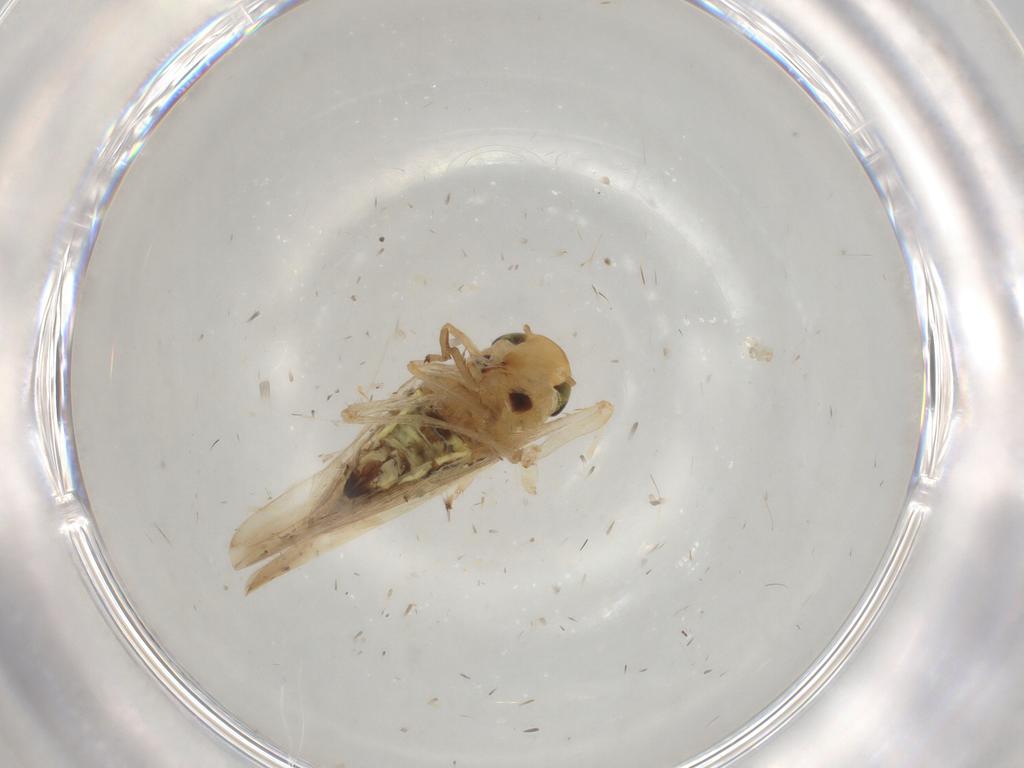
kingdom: Animalia
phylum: Arthropoda
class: Insecta
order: Hemiptera
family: Cicadellidae
